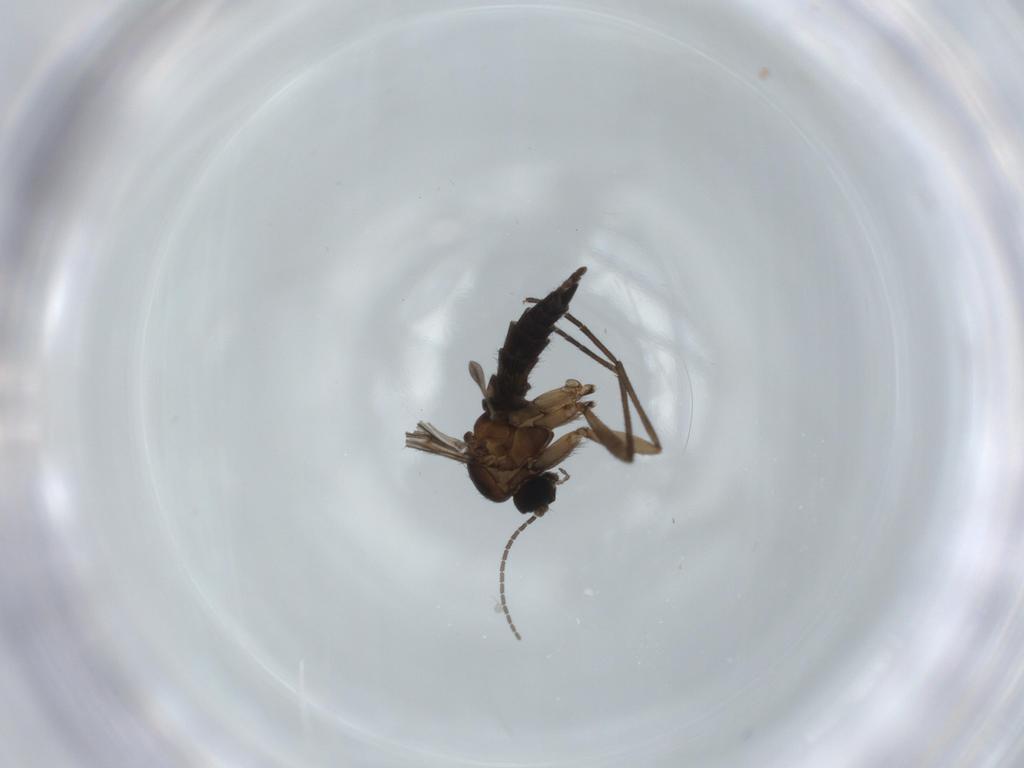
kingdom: Animalia
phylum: Arthropoda
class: Insecta
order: Diptera
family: Sciaridae
